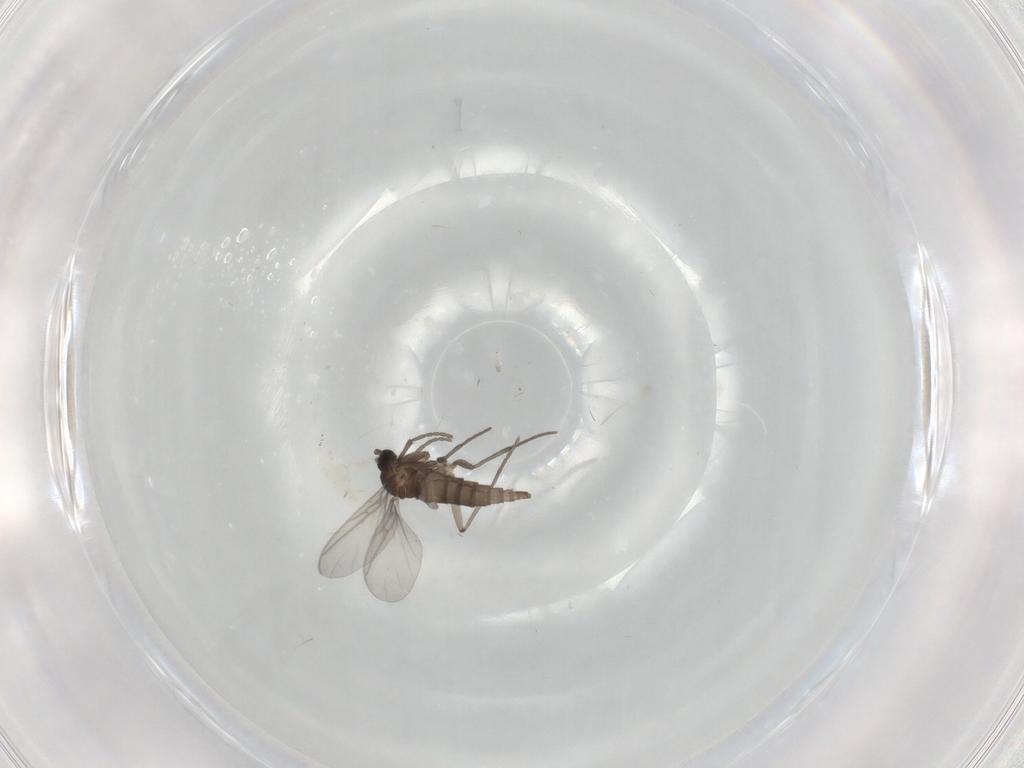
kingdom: Animalia
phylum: Arthropoda
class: Insecta
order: Diptera
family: Sciaridae
